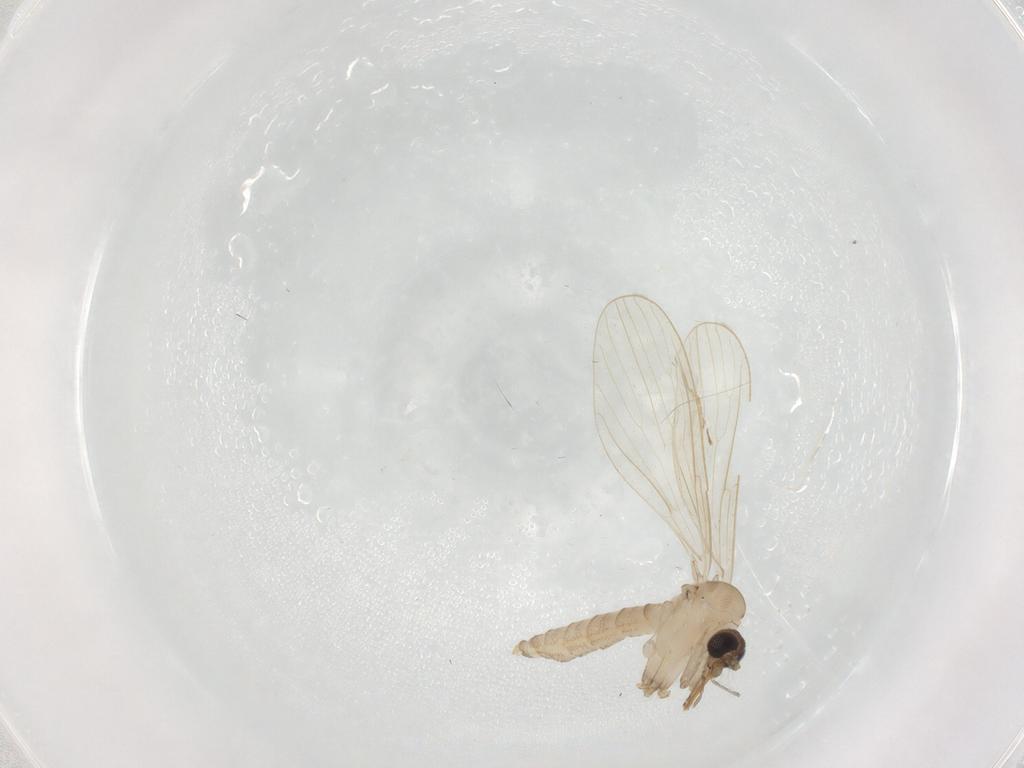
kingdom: Animalia
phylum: Arthropoda
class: Insecta
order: Diptera
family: Psychodidae
